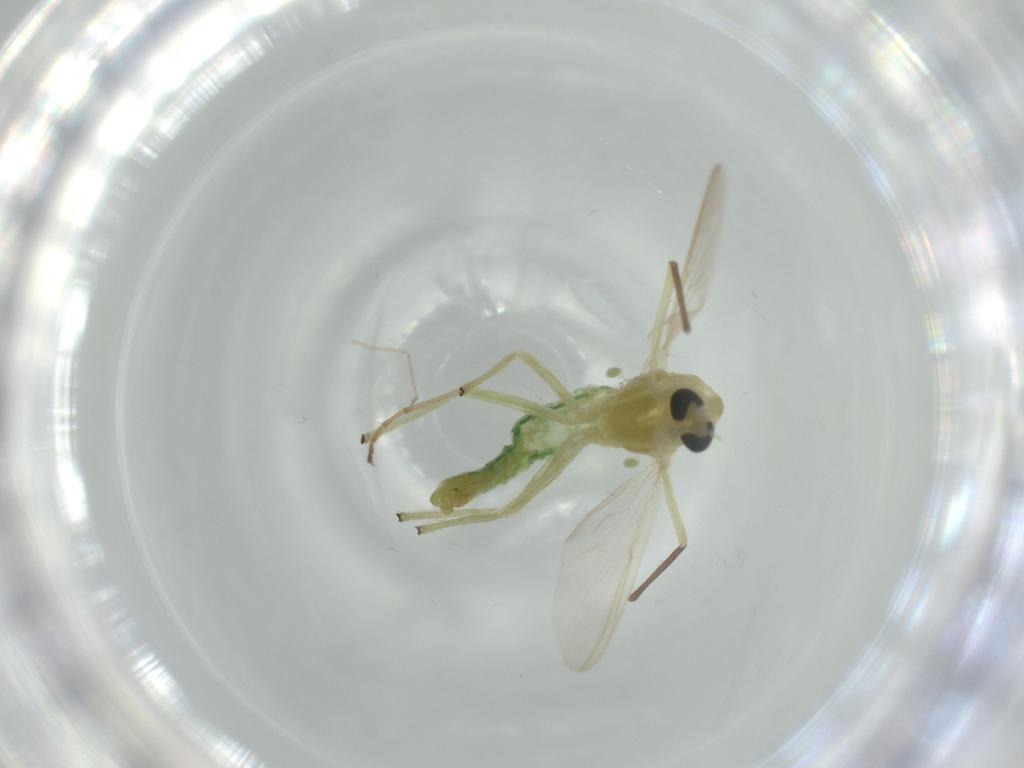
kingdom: Animalia
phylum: Arthropoda
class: Insecta
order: Diptera
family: Chironomidae
